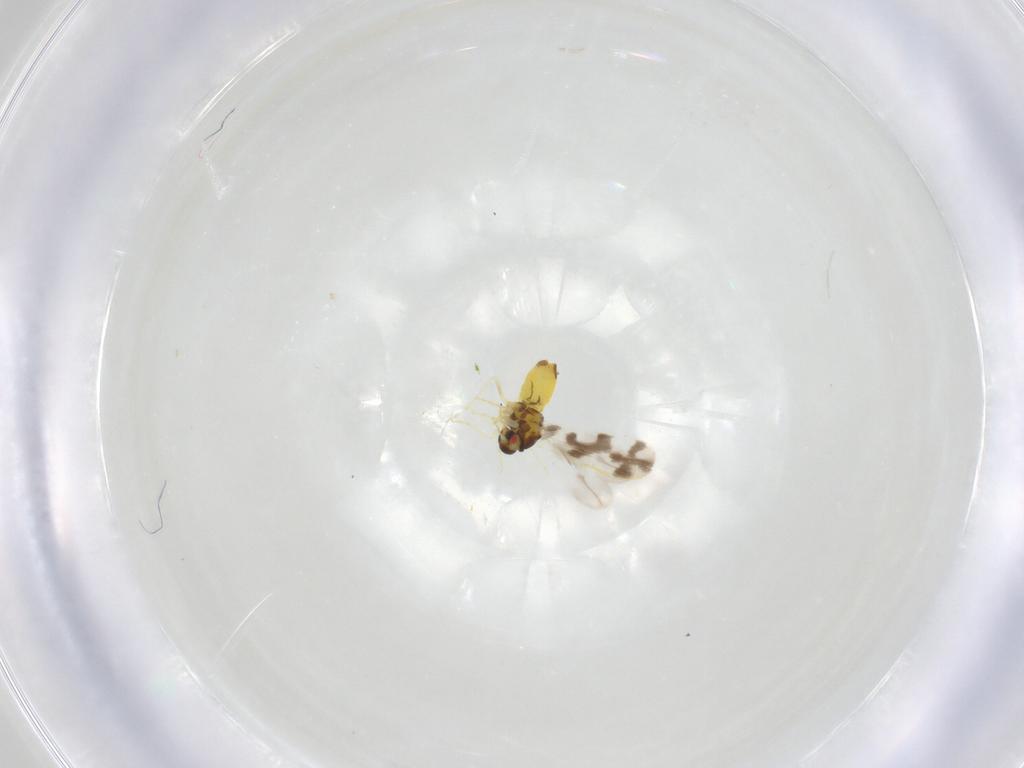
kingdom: Animalia
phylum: Arthropoda
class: Insecta
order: Hemiptera
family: Aleyrodidae
